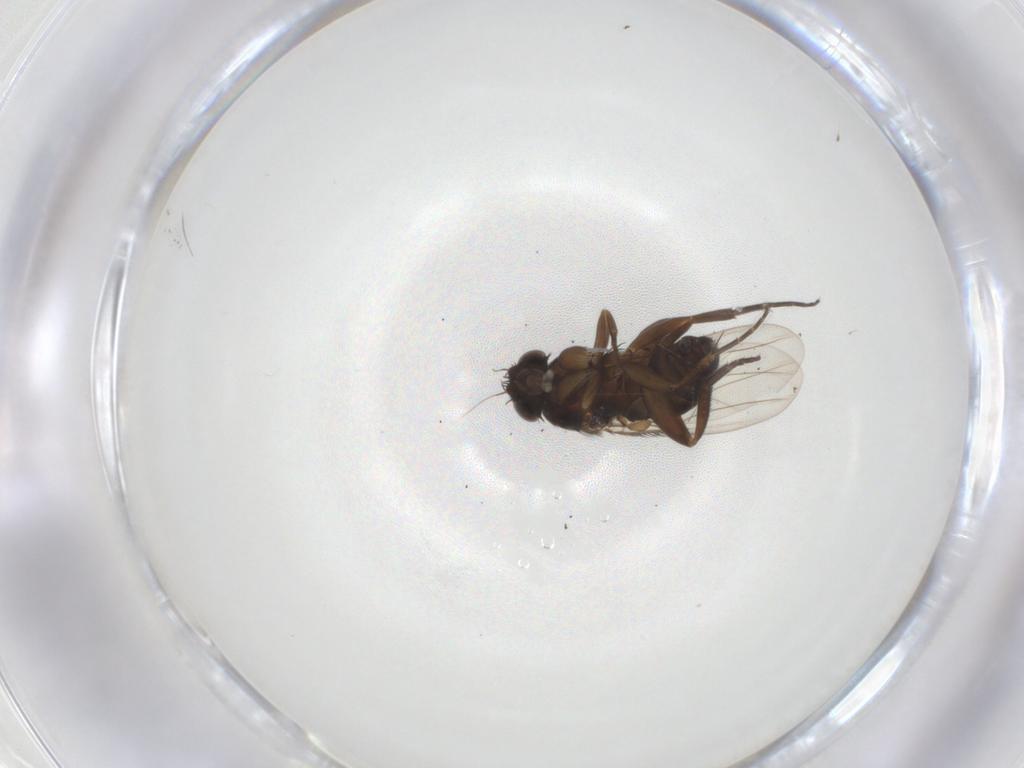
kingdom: Animalia
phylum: Arthropoda
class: Insecta
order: Diptera
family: Phoridae
